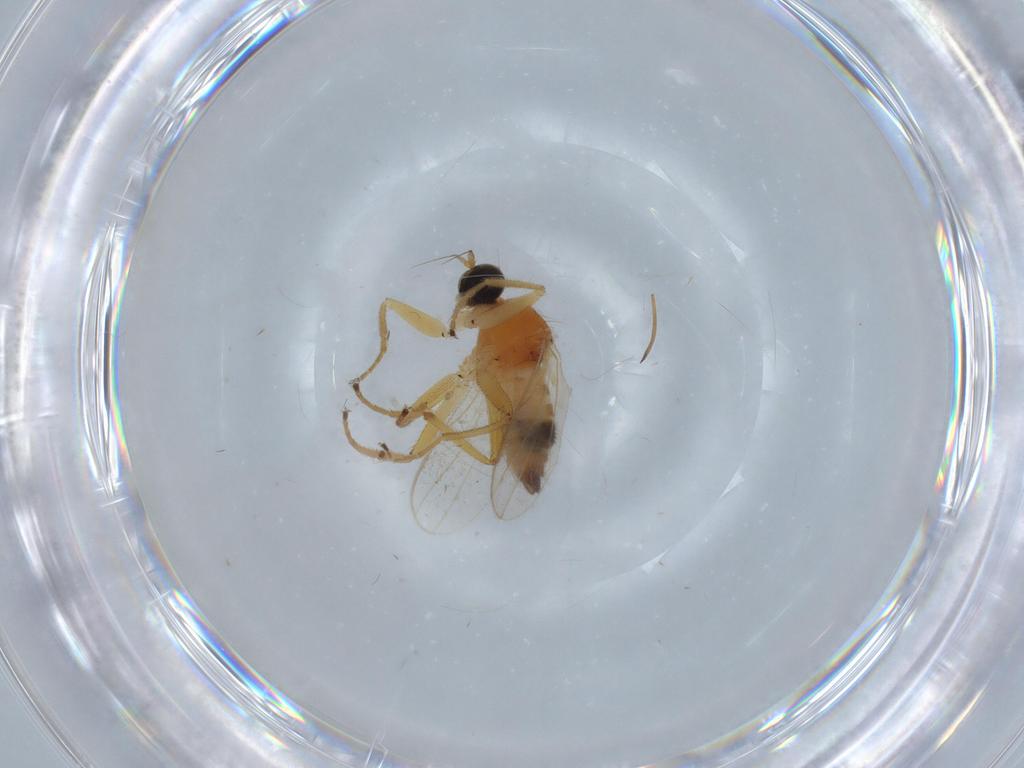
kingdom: Animalia
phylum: Arthropoda
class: Insecta
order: Diptera
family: Hybotidae
